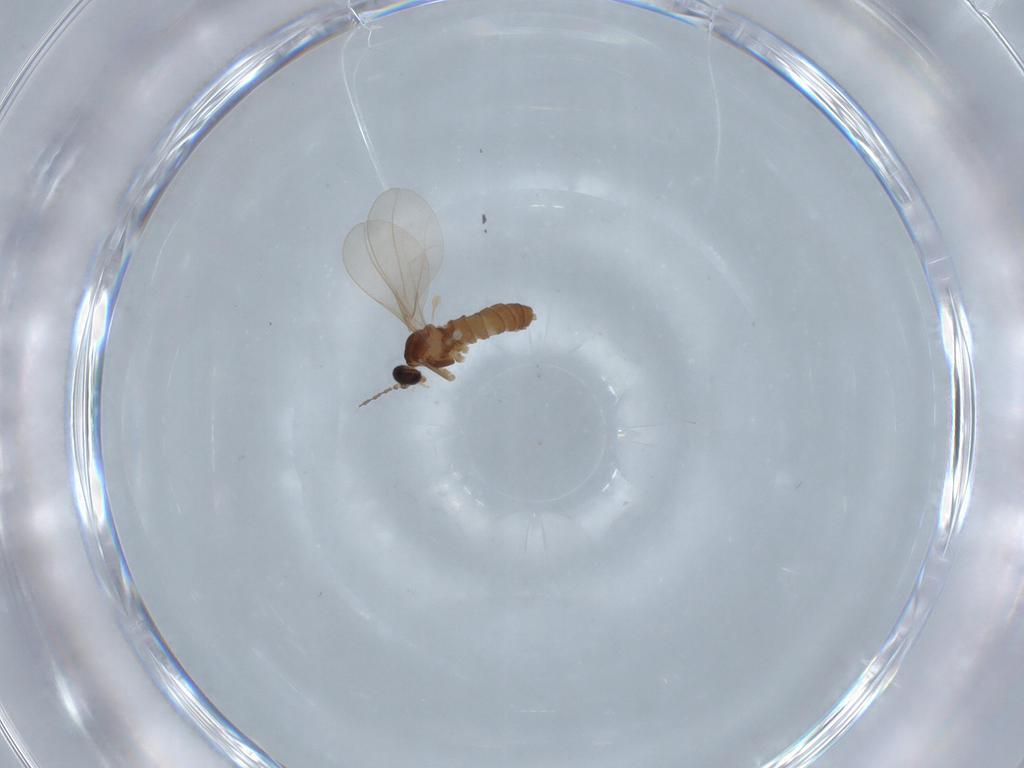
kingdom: Animalia
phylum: Arthropoda
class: Insecta
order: Diptera
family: Cecidomyiidae
